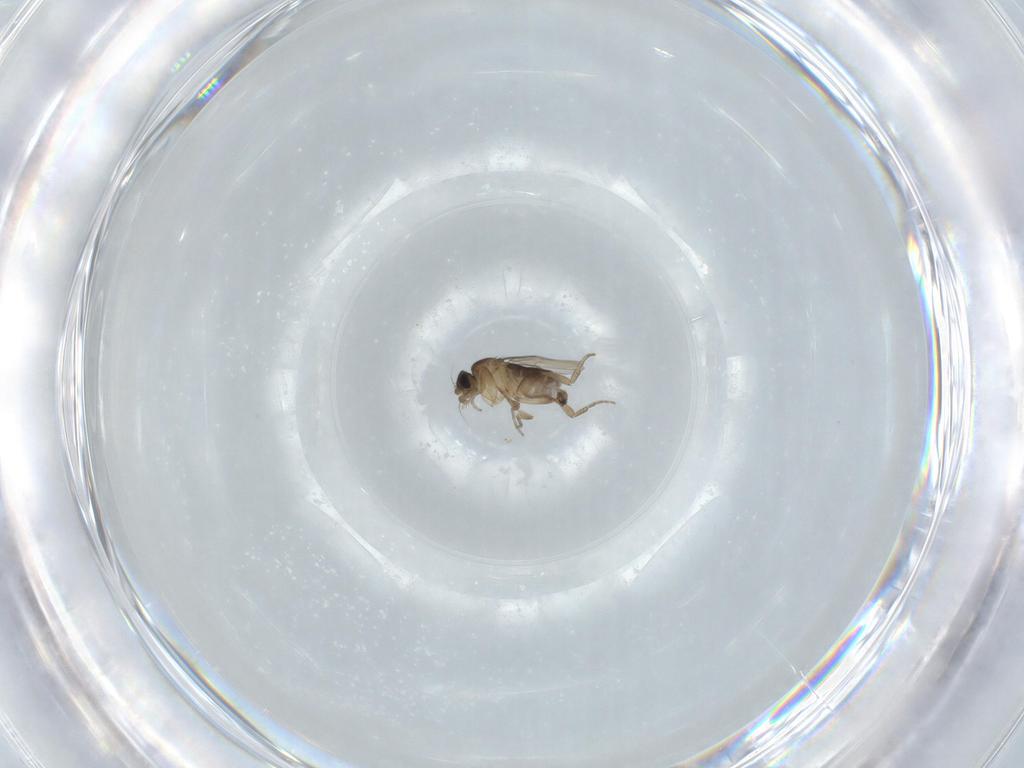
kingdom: Animalia
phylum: Arthropoda
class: Insecta
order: Diptera
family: Phoridae
